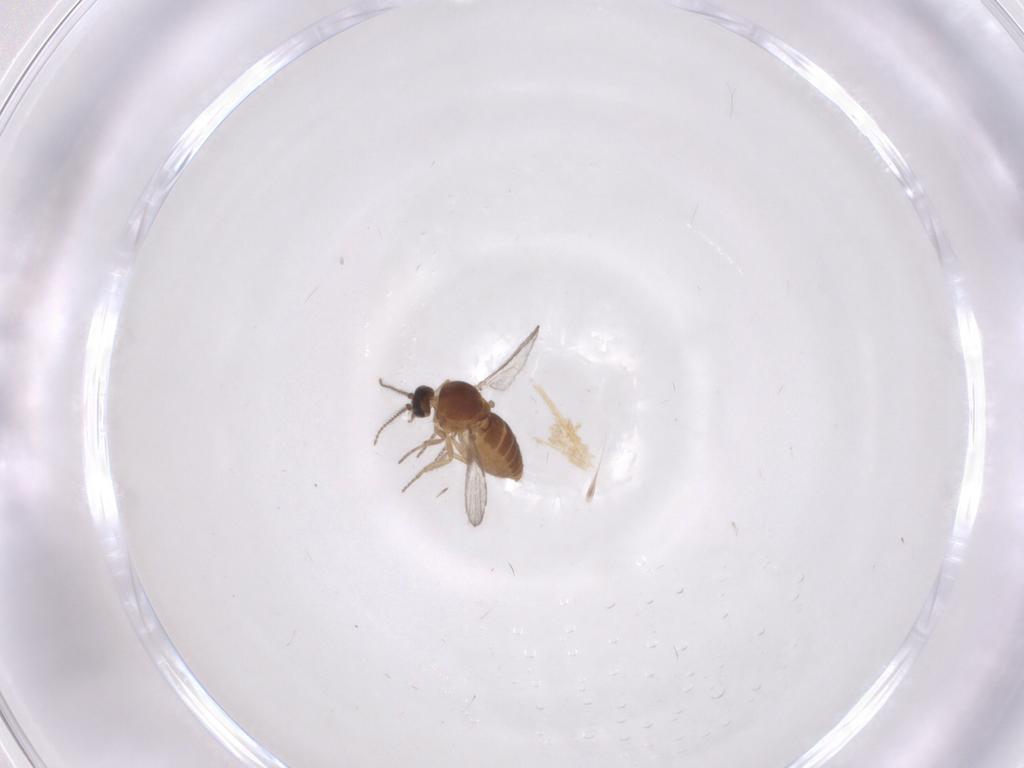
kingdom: Animalia
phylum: Arthropoda
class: Insecta
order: Diptera
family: Ceratopogonidae
